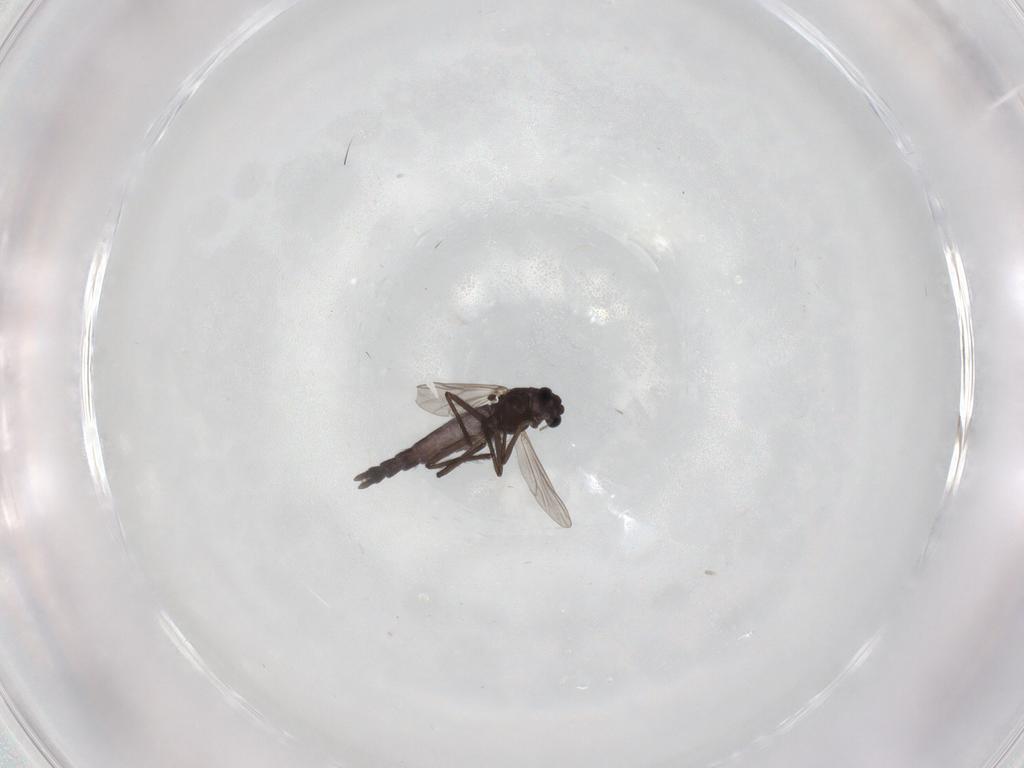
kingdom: Animalia
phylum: Arthropoda
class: Insecta
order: Diptera
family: Chironomidae
